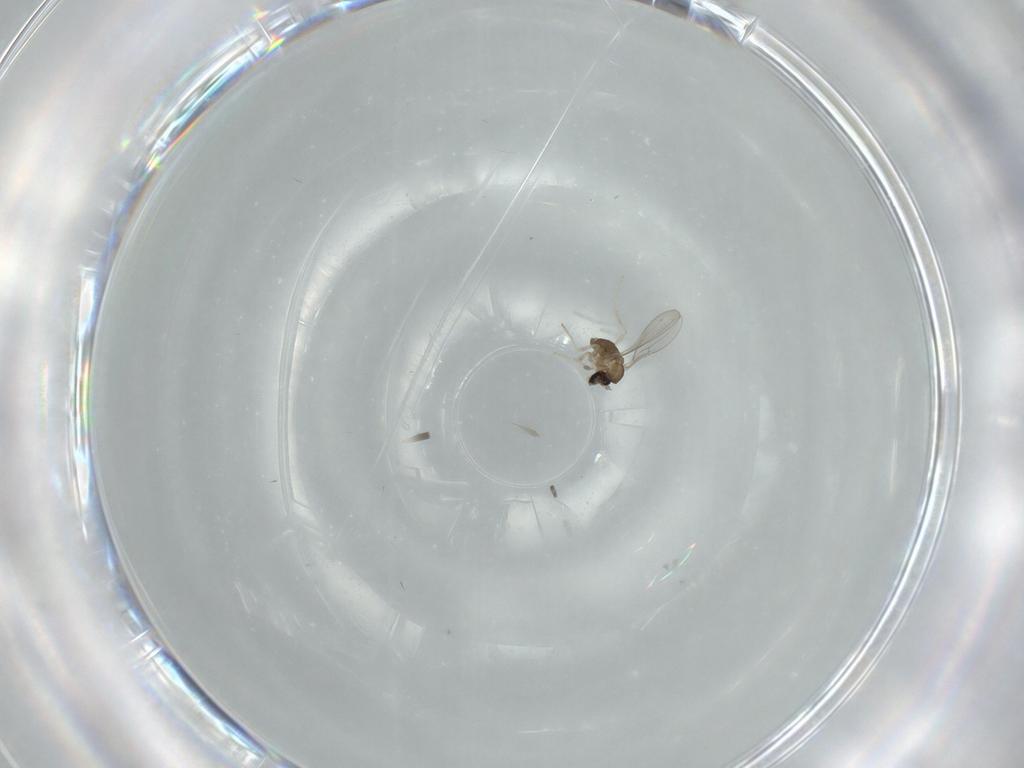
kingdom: Animalia
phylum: Arthropoda
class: Insecta
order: Diptera
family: Cecidomyiidae
